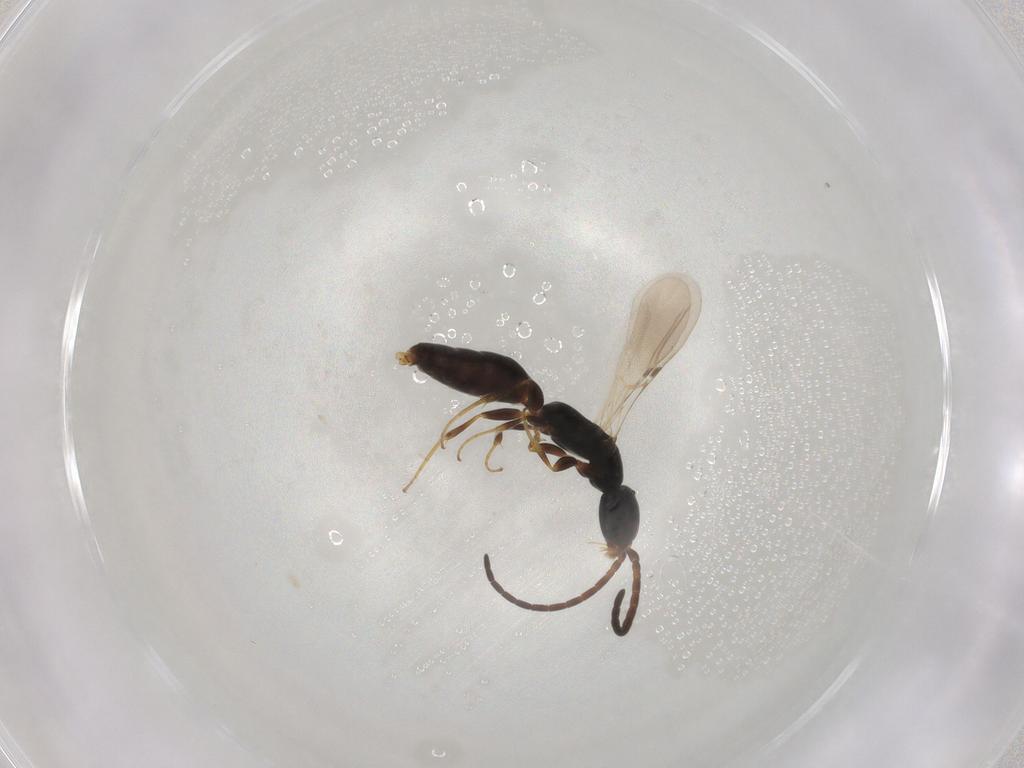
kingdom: Animalia
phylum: Arthropoda
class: Insecta
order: Hymenoptera
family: Bethylidae
